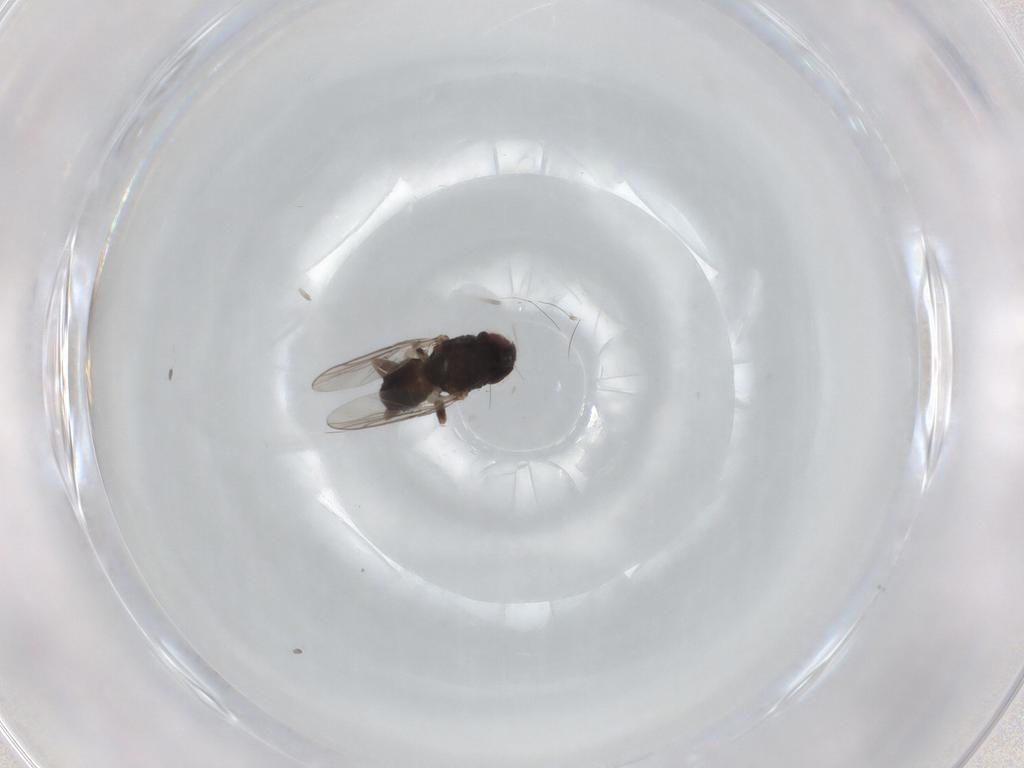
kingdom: Animalia
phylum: Arthropoda
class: Insecta
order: Diptera
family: Chloropidae
